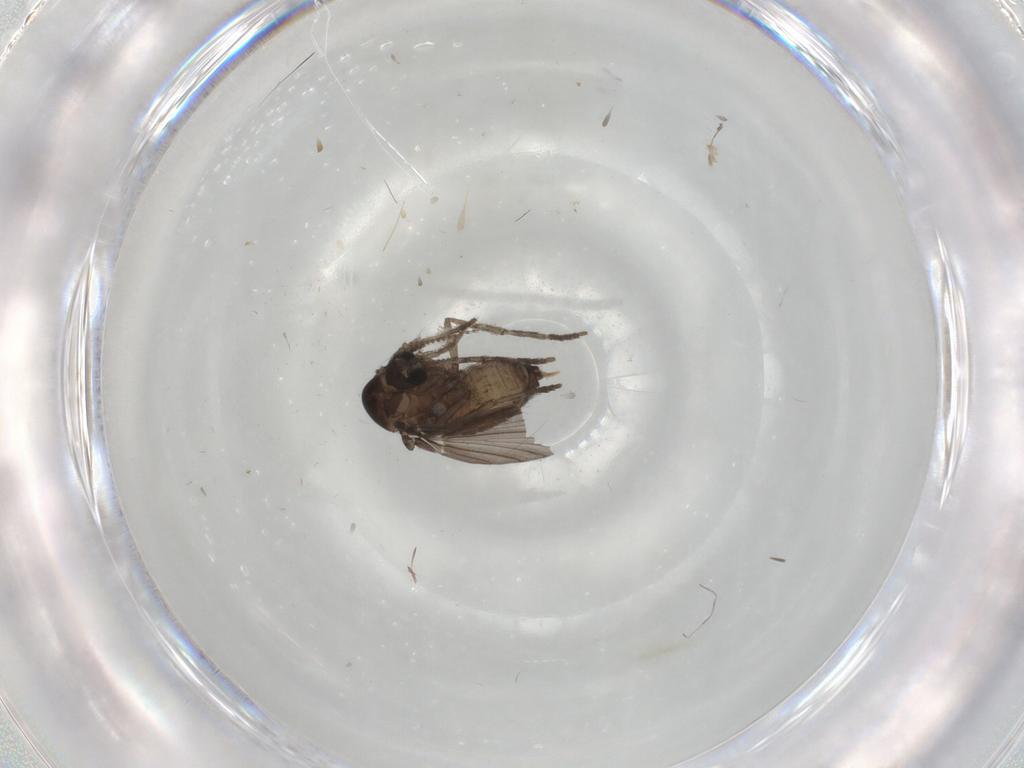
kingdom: Animalia
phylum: Arthropoda
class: Insecta
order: Diptera
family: Psychodidae
